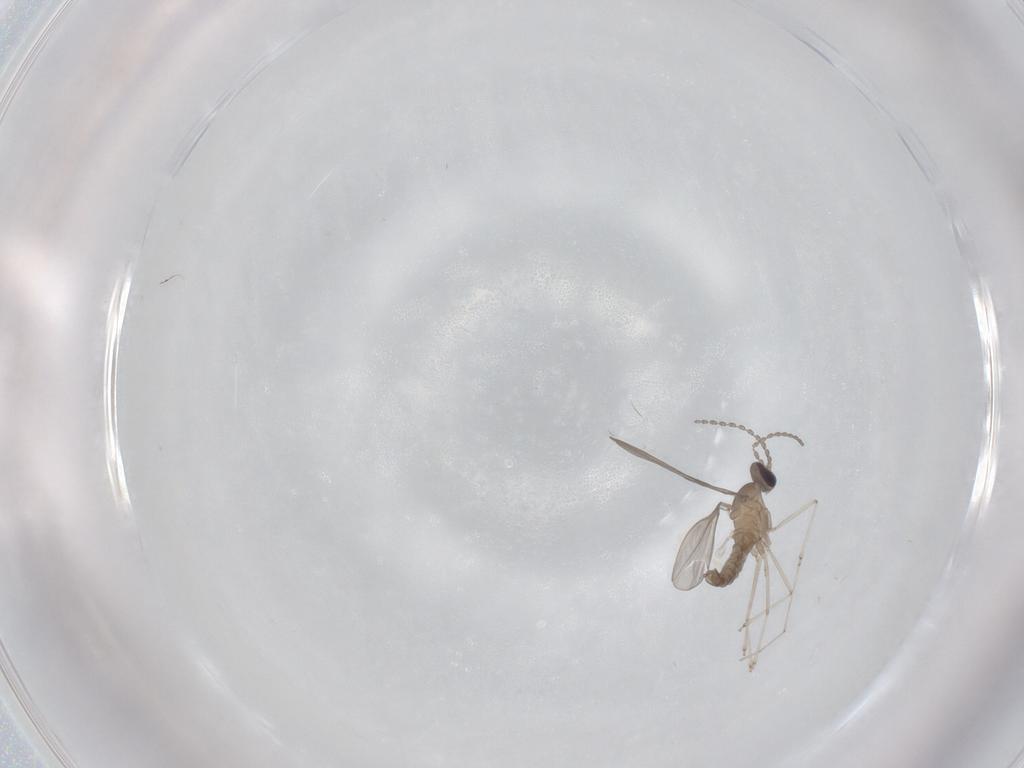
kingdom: Animalia
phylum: Arthropoda
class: Insecta
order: Diptera
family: Cecidomyiidae
